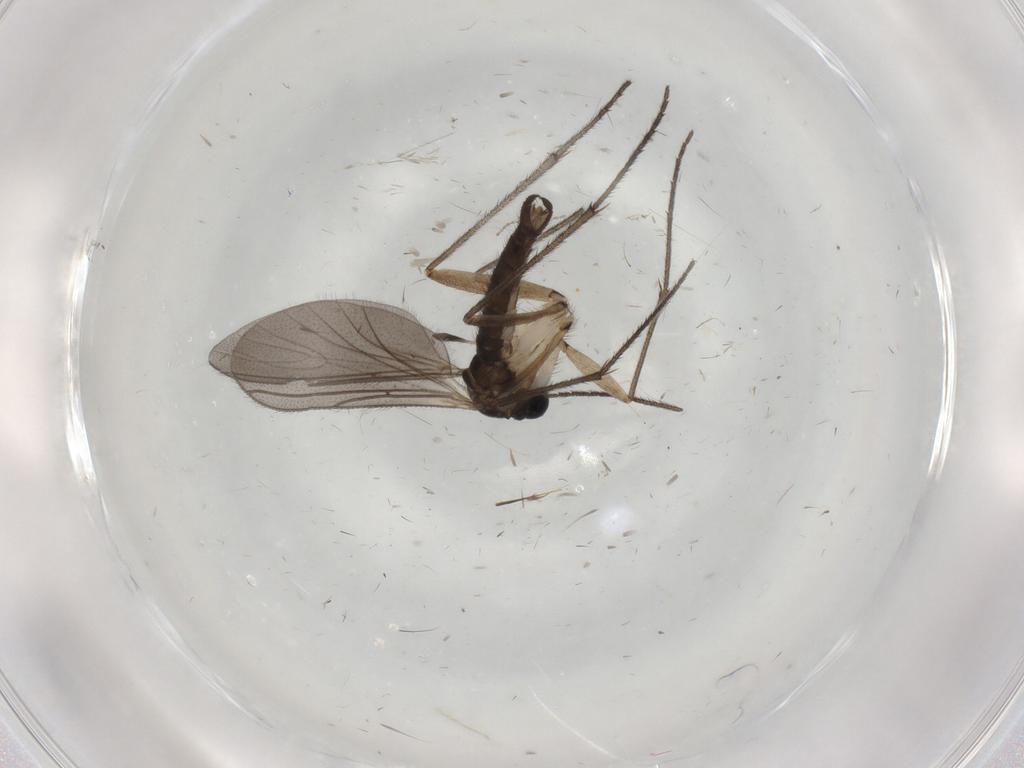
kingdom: Animalia
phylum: Arthropoda
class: Insecta
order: Diptera
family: Sciaridae
